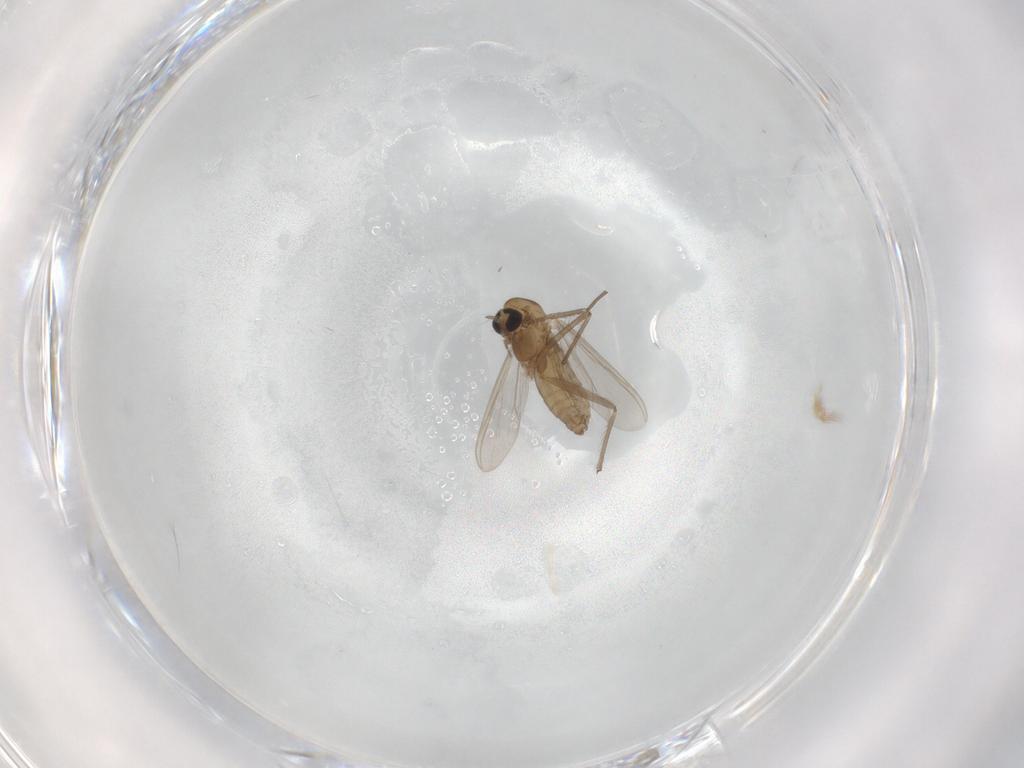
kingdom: Animalia
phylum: Arthropoda
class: Insecta
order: Diptera
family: Chironomidae
